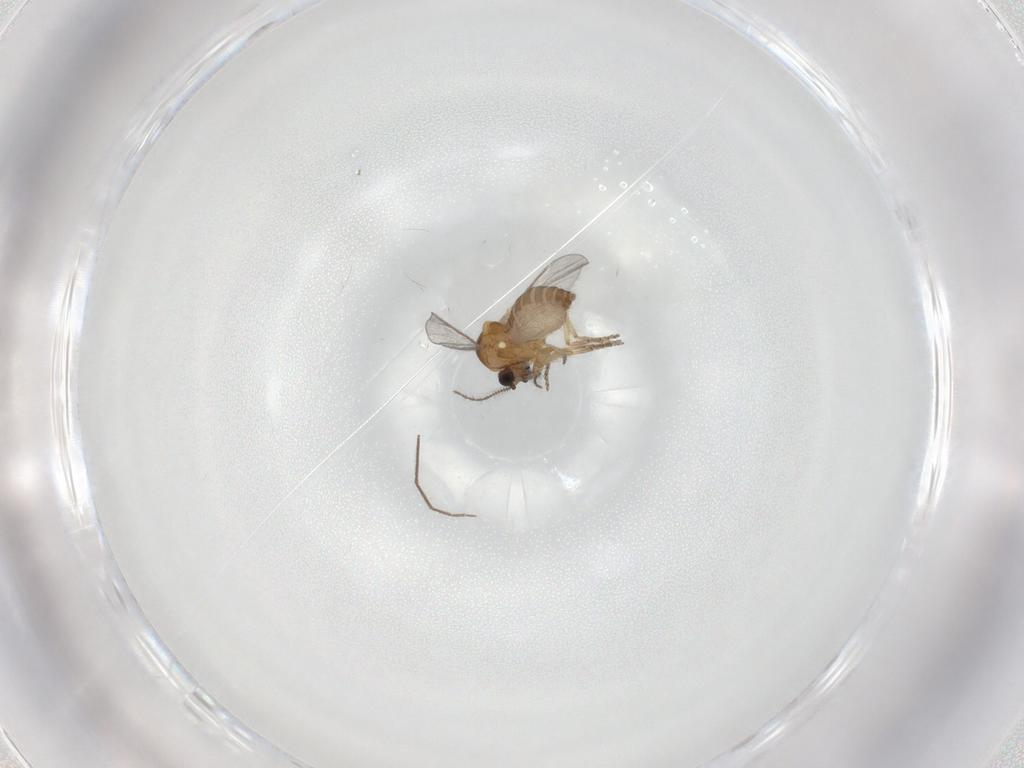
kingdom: Animalia
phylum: Arthropoda
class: Insecta
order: Diptera
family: Ceratopogonidae
